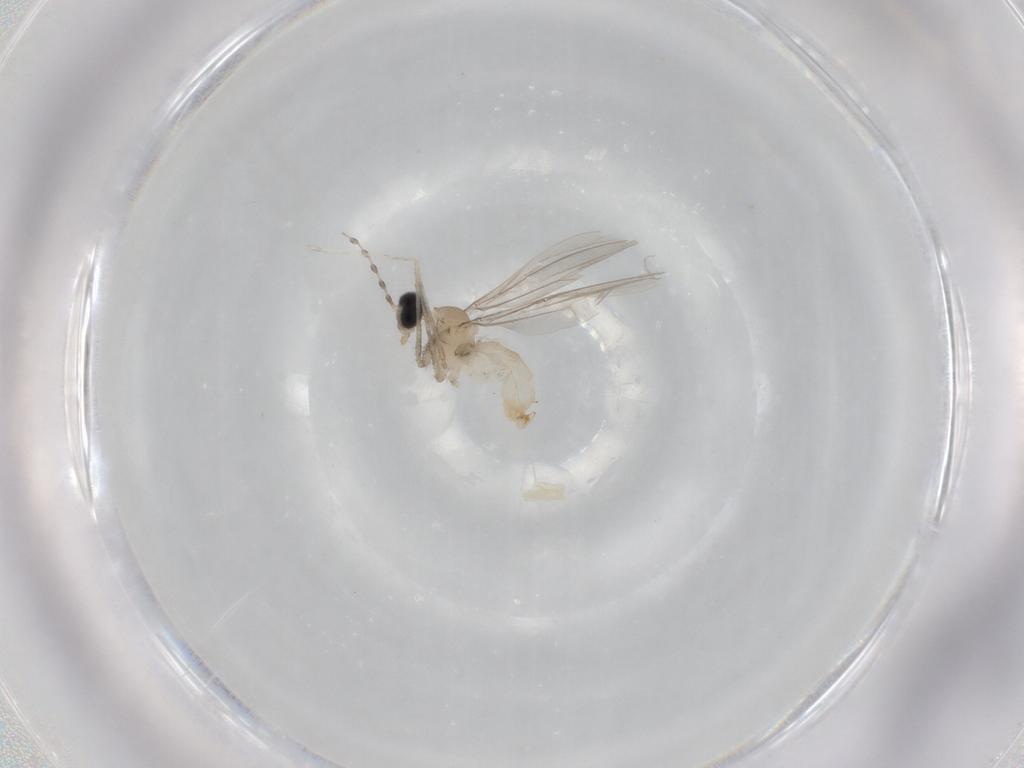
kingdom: Animalia
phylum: Arthropoda
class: Insecta
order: Diptera
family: Cecidomyiidae
